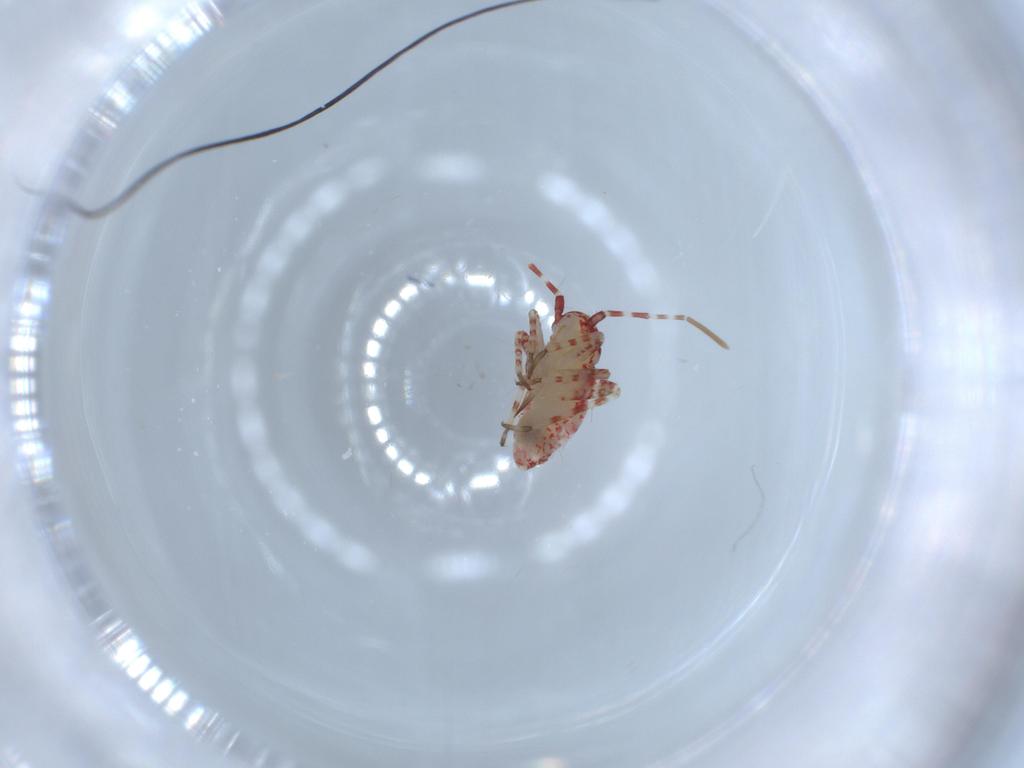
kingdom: Animalia
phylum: Arthropoda
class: Insecta
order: Hemiptera
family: Miridae
